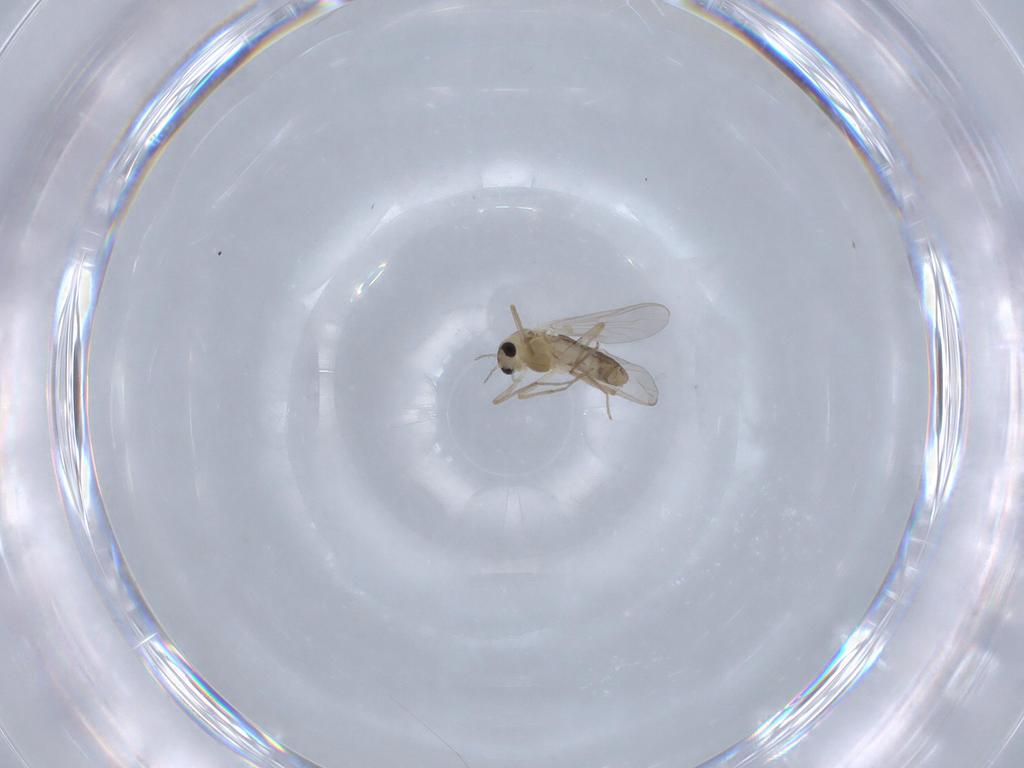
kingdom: Animalia
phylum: Arthropoda
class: Insecta
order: Diptera
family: Chironomidae
